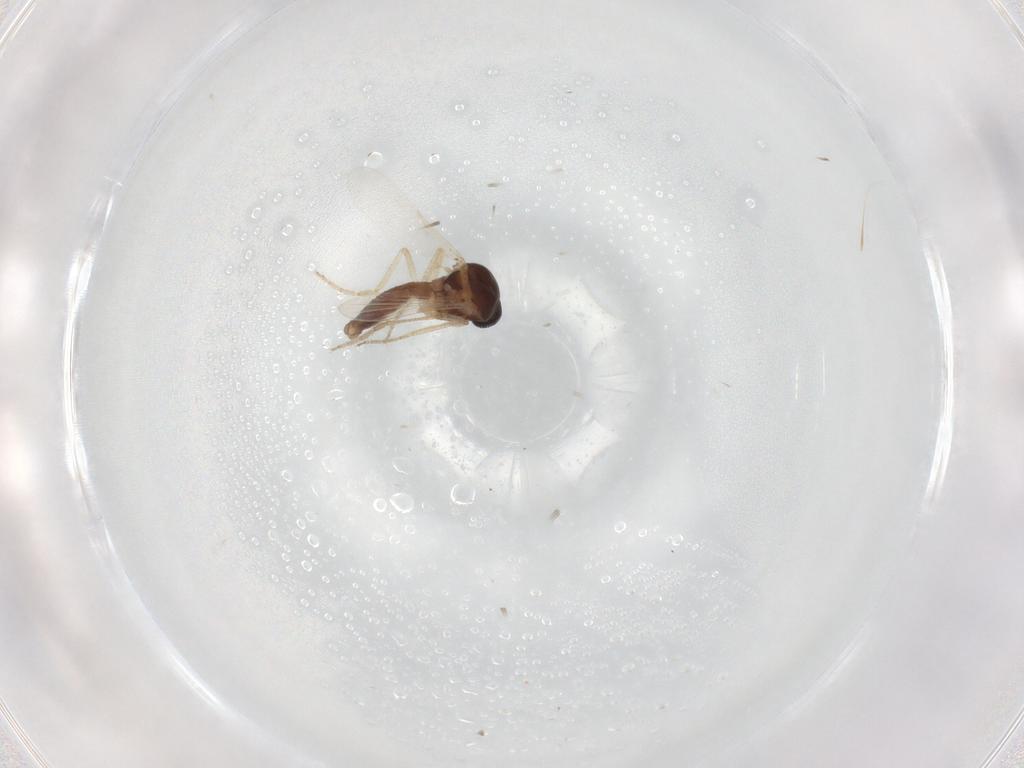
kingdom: Animalia
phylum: Arthropoda
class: Insecta
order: Diptera
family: Ceratopogonidae
